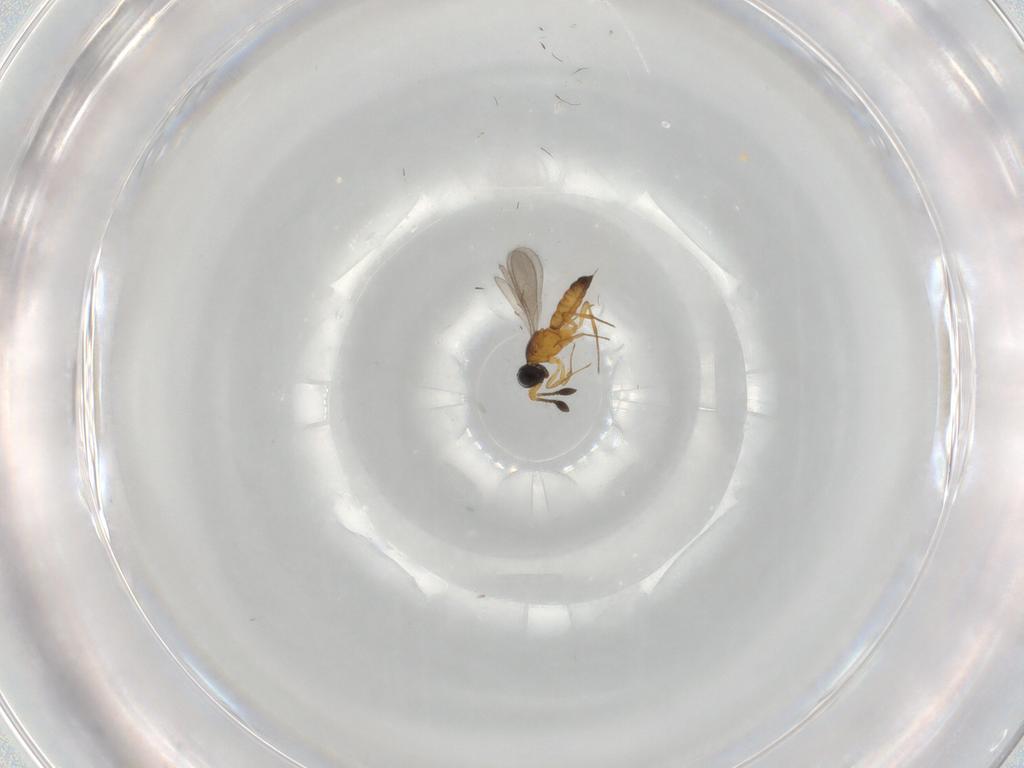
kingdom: Animalia
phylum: Arthropoda
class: Insecta
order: Hymenoptera
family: Scelionidae
